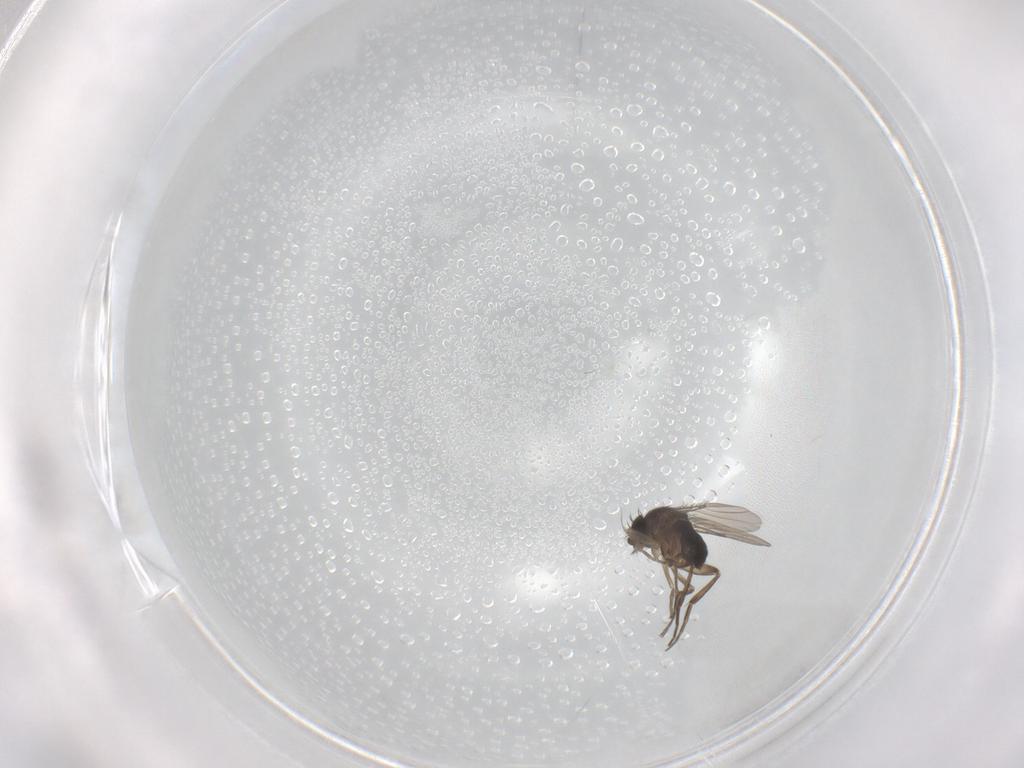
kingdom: Animalia
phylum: Arthropoda
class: Insecta
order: Diptera
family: Phoridae
